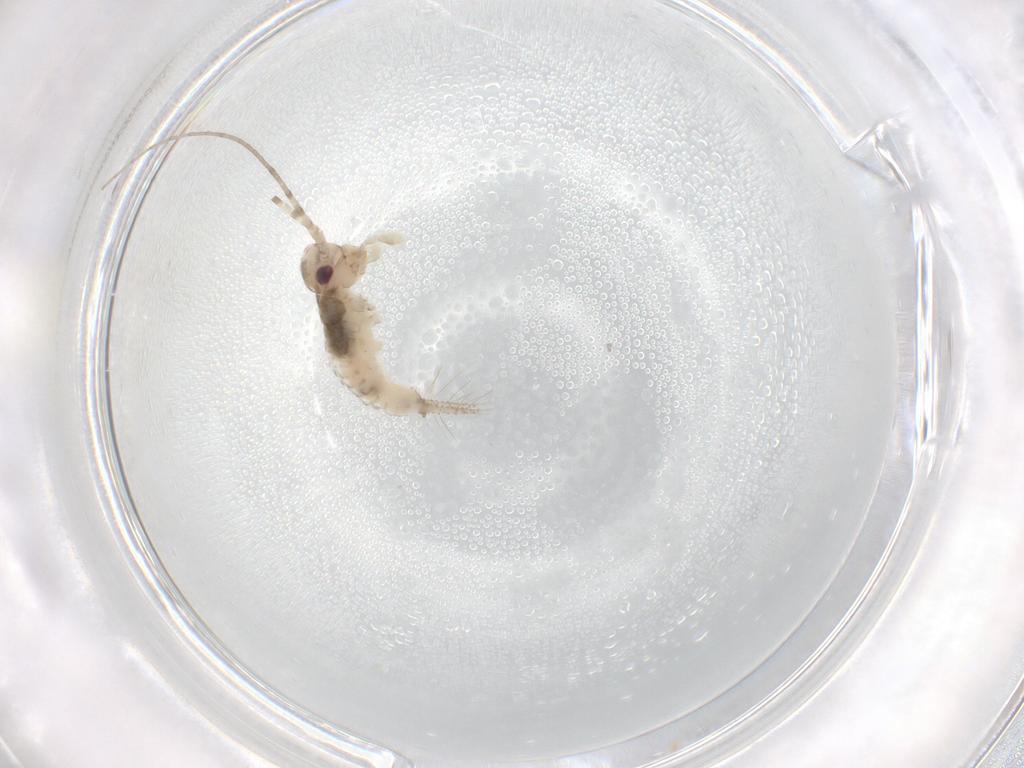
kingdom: Animalia
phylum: Arthropoda
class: Insecta
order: Orthoptera
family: Trigonidiidae
